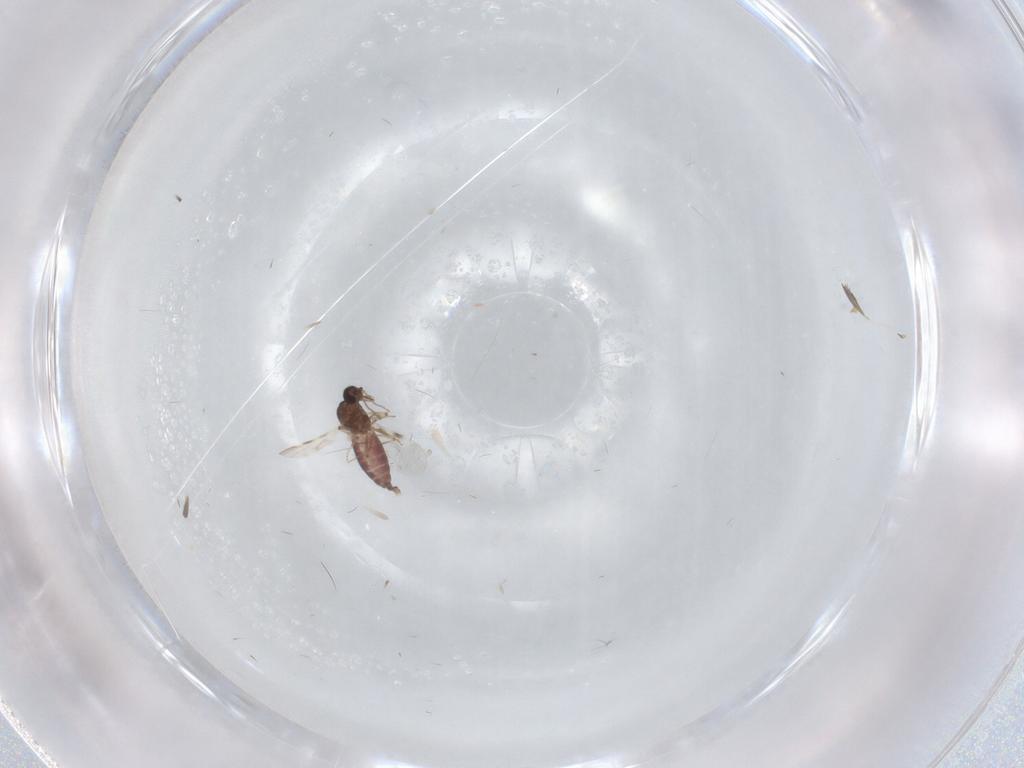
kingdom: Animalia
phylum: Arthropoda
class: Insecta
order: Diptera
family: Cecidomyiidae
